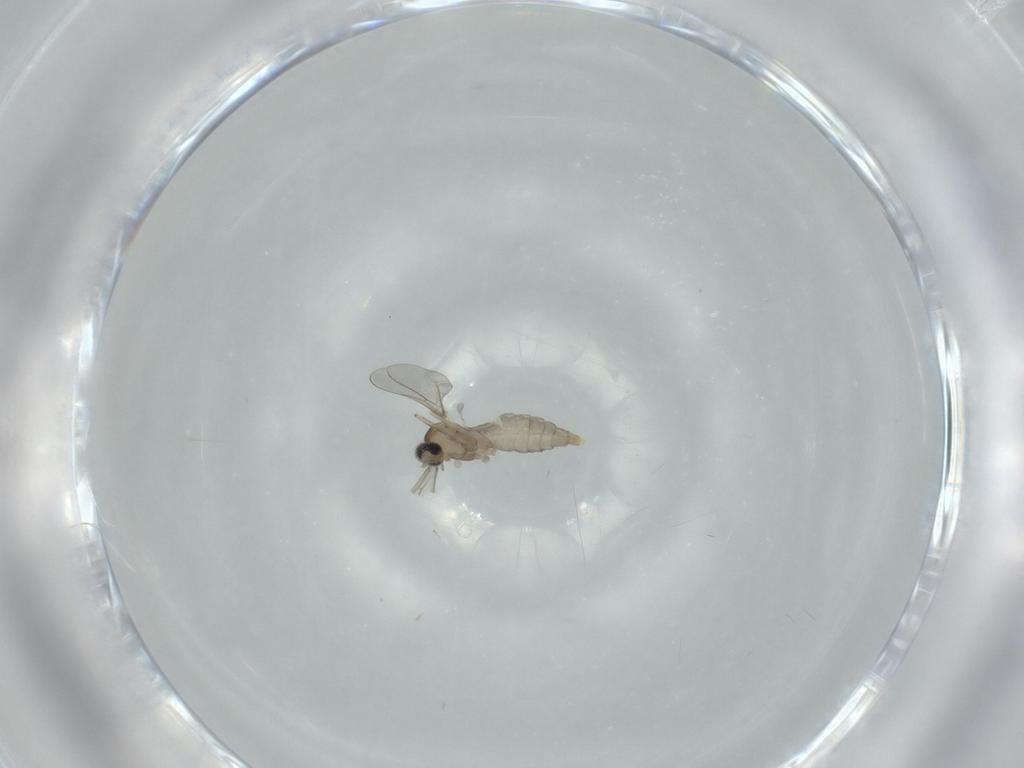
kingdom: Animalia
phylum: Arthropoda
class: Insecta
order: Diptera
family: Cecidomyiidae
